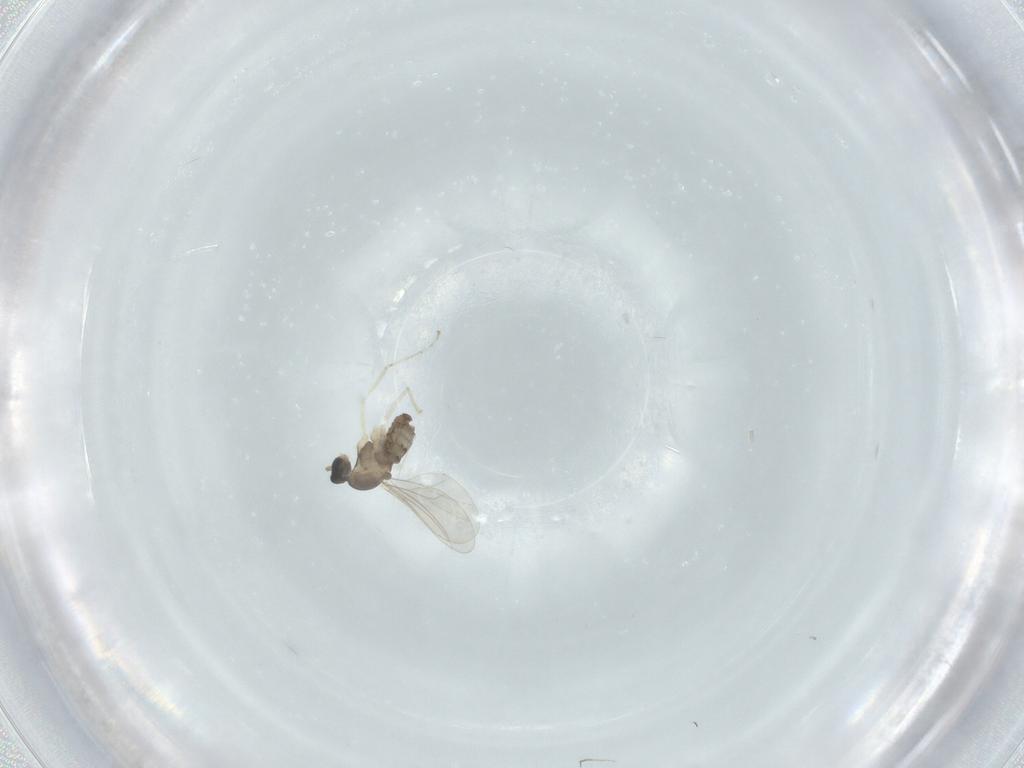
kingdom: Animalia
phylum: Arthropoda
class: Insecta
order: Diptera
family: Cecidomyiidae
